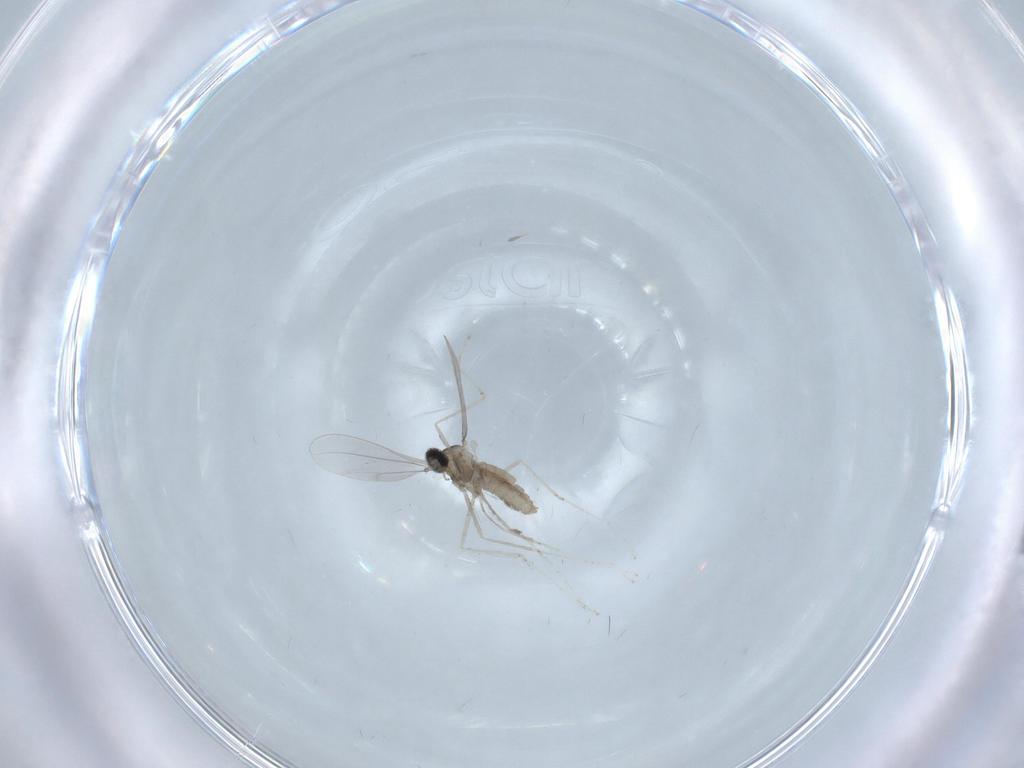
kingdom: Animalia
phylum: Arthropoda
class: Insecta
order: Diptera
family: Cecidomyiidae
